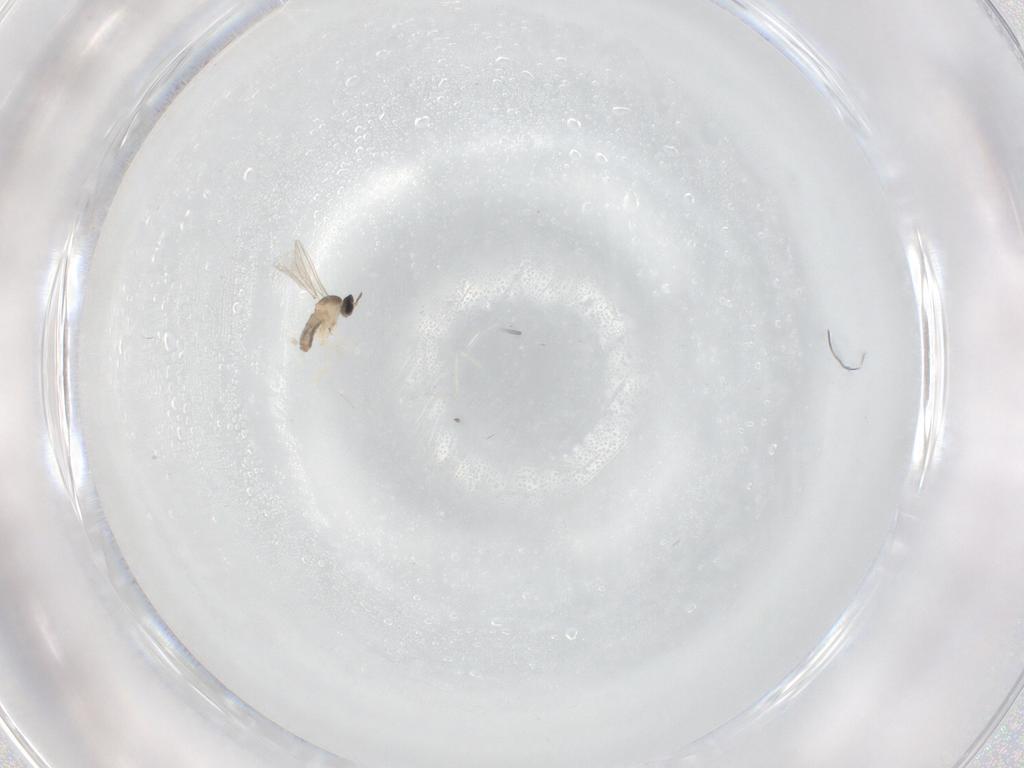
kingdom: Animalia
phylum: Arthropoda
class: Insecta
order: Diptera
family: Cecidomyiidae
